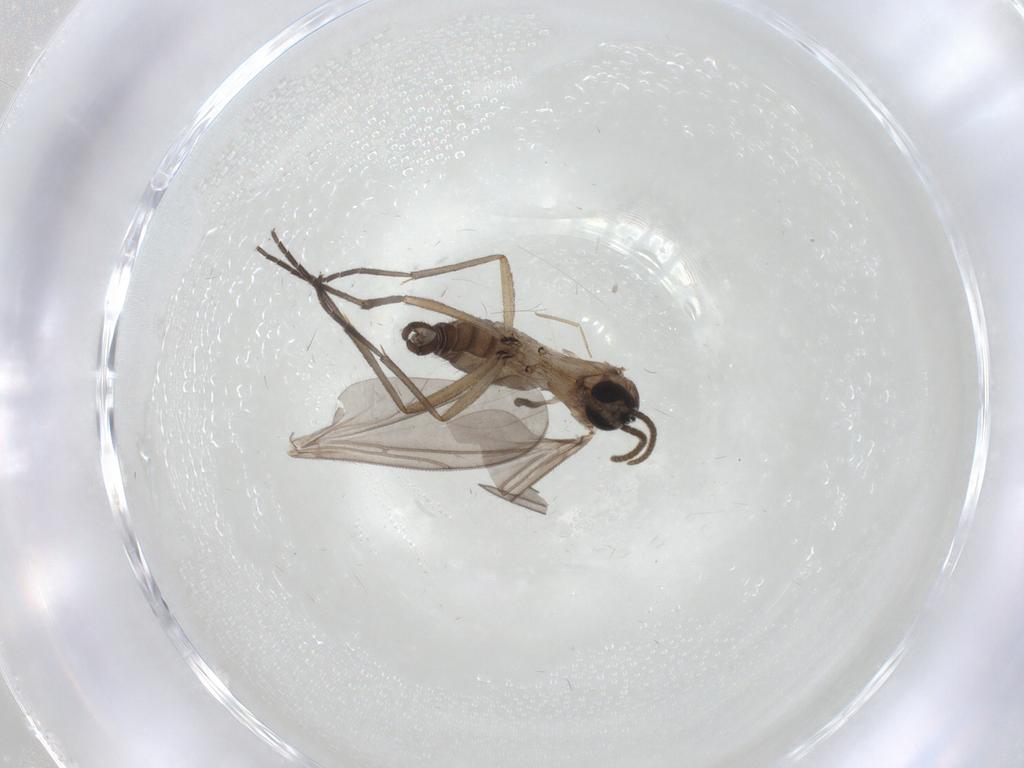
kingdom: Animalia
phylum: Arthropoda
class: Insecta
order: Diptera
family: Sciaridae
